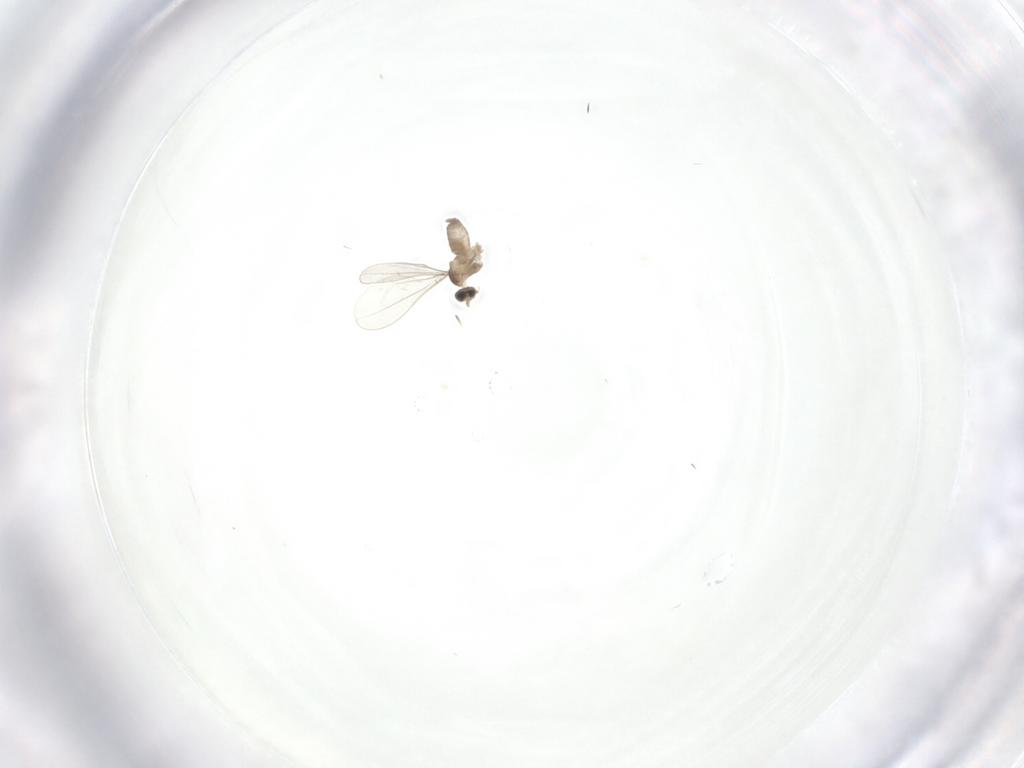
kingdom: Animalia
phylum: Arthropoda
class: Insecta
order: Diptera
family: Cecidomyiidae
